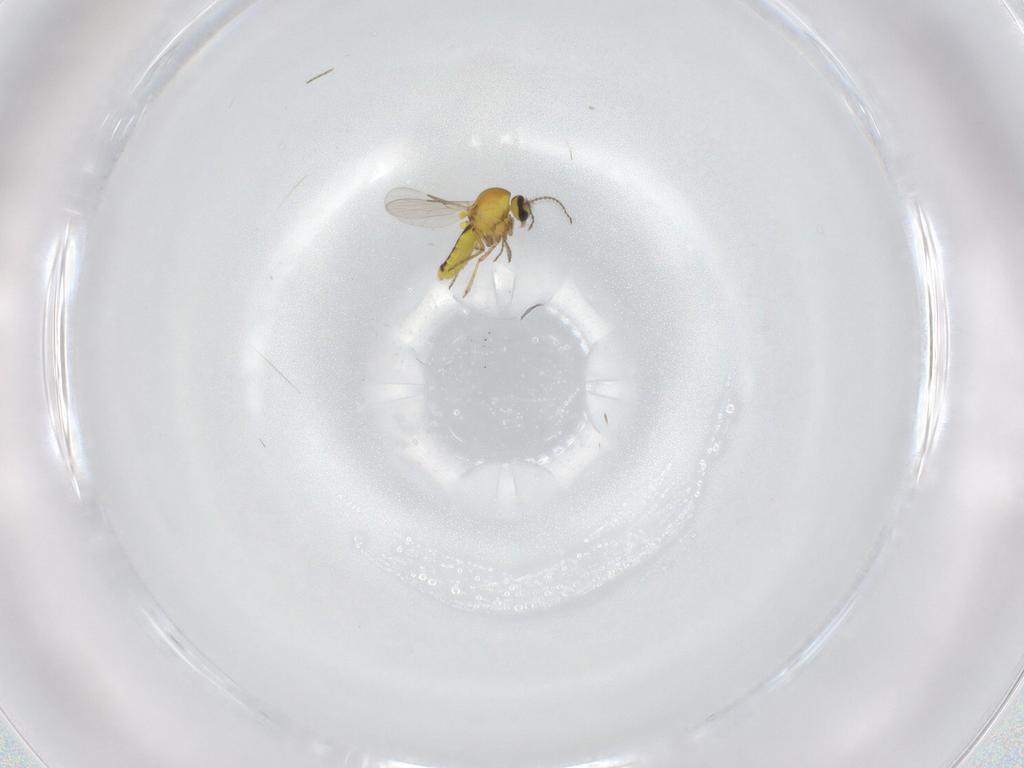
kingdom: Animalia
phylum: Arthropoda
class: Insecta
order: Diptera
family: Ceratopogonidae
